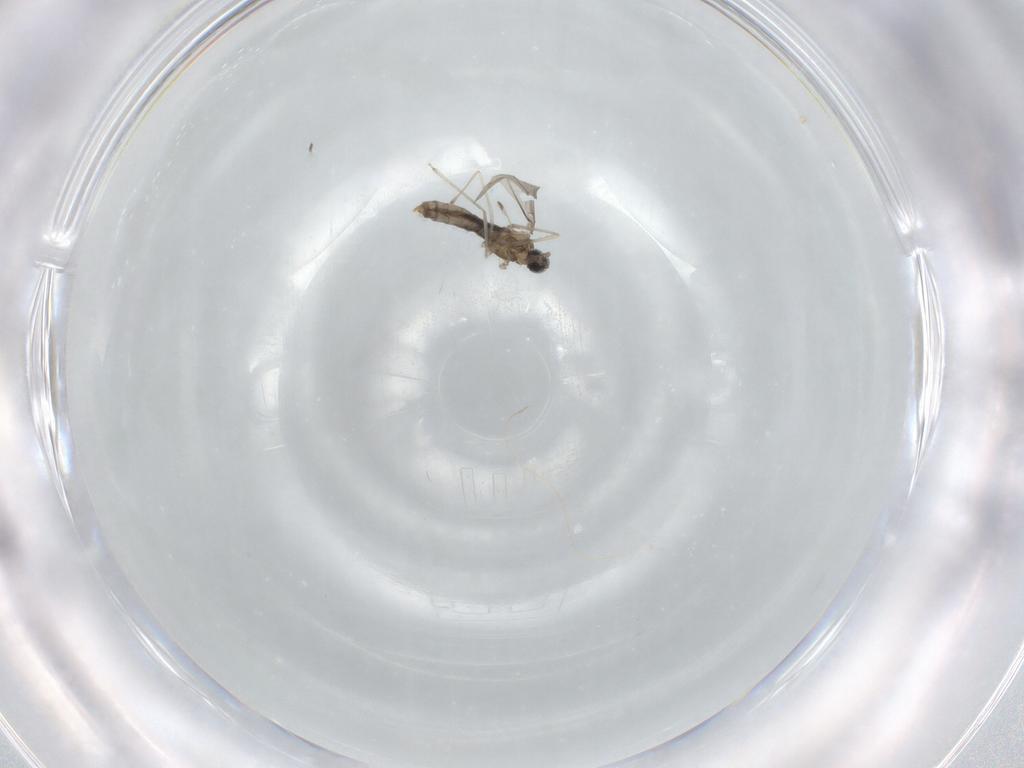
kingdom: Animalia
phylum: Arthropoda
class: Insecta
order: Diptera
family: Cecidomyiidae
